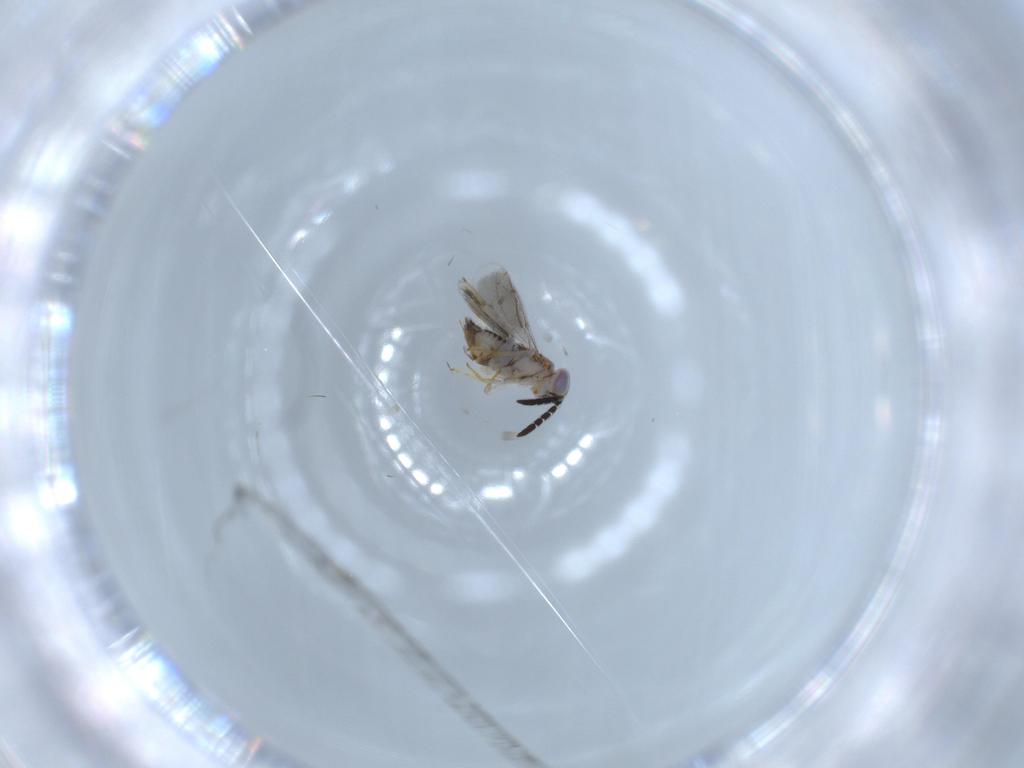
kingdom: Animalia
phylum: Arthropoda
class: Insecta
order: Hymenoptera
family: Aphelinidae
